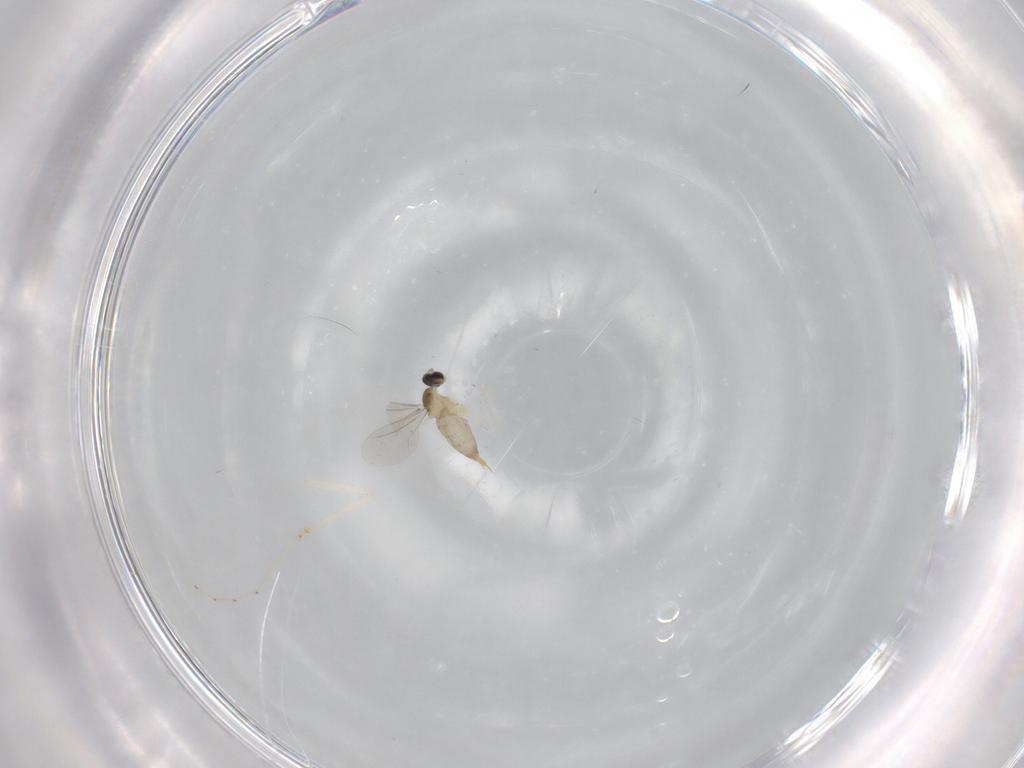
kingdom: Animalia
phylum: Arthropoda
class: Insecta
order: Diptera
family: Cecidomyiidae
